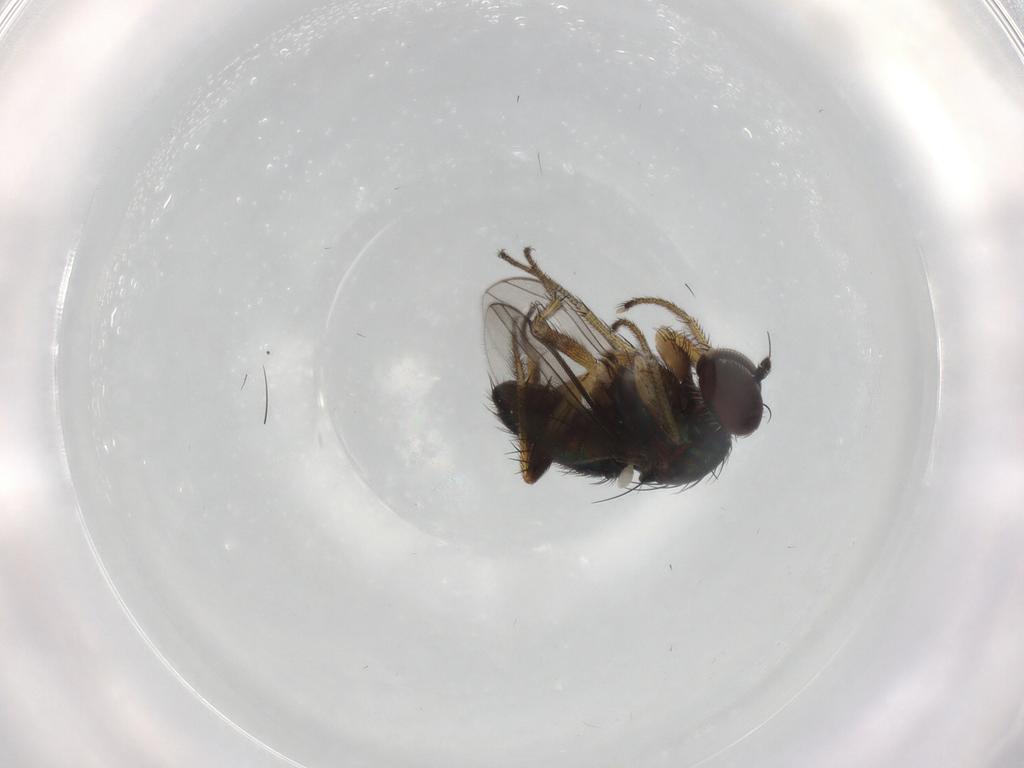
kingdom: Animalia
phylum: Arthropoda
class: Insecta
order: Diptera
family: Dolichopodidae
